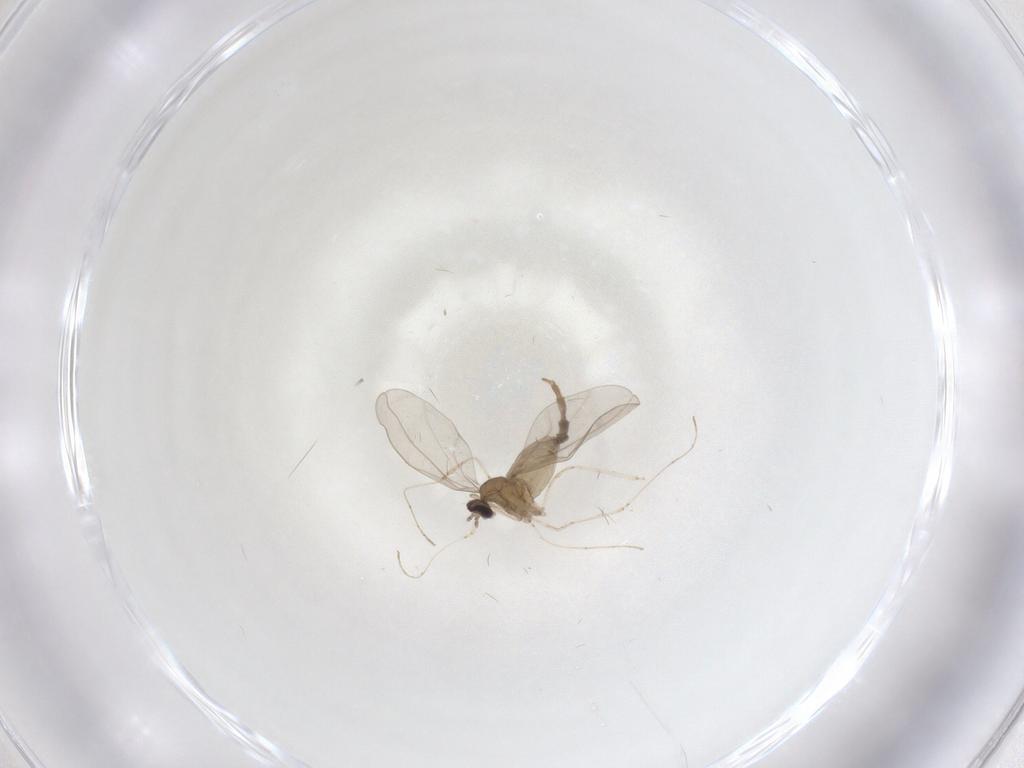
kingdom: Animalia
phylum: Arthropoda
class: Insecta
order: Diptera
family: Cecidomyiidae
